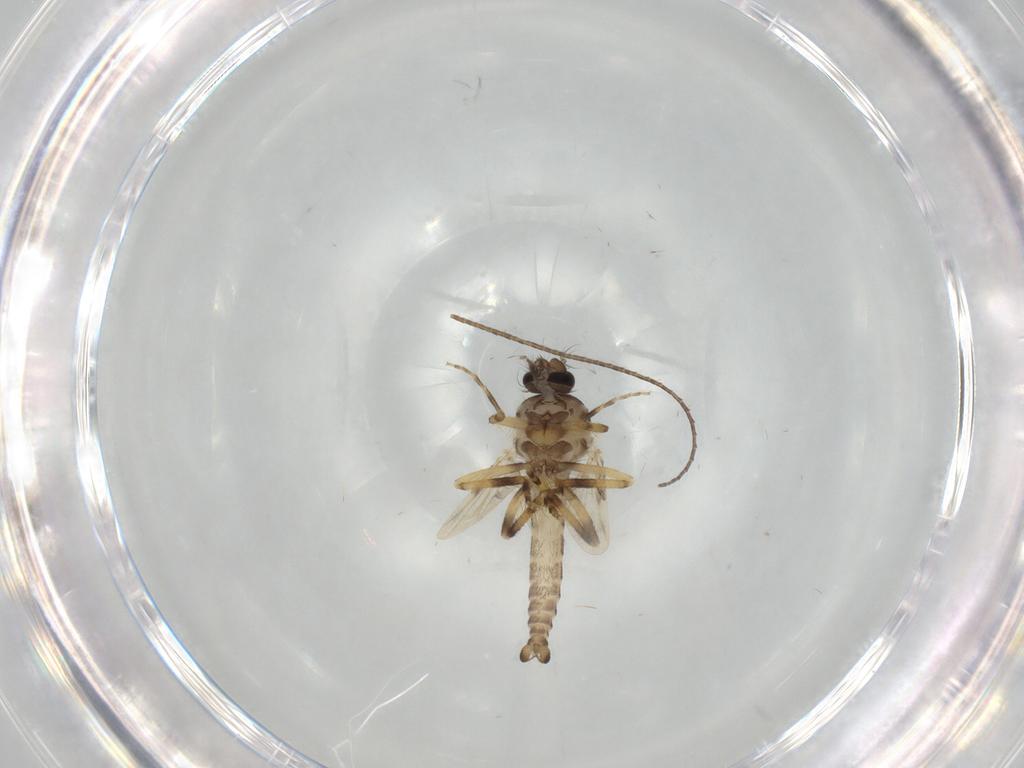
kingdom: Animalia
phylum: Arthropoda
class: Insecta
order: Diptera
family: Ceratopogonidae
